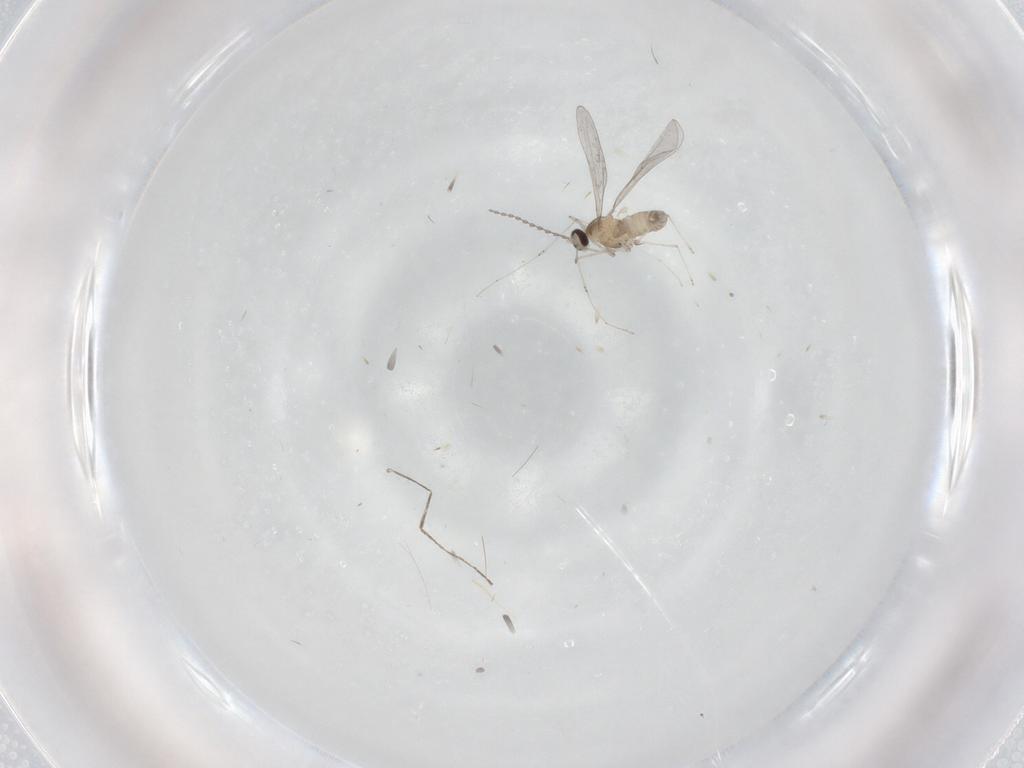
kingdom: Animalia
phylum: Arthropoda
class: Insecta
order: Diptera
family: Cecidomyiidae
